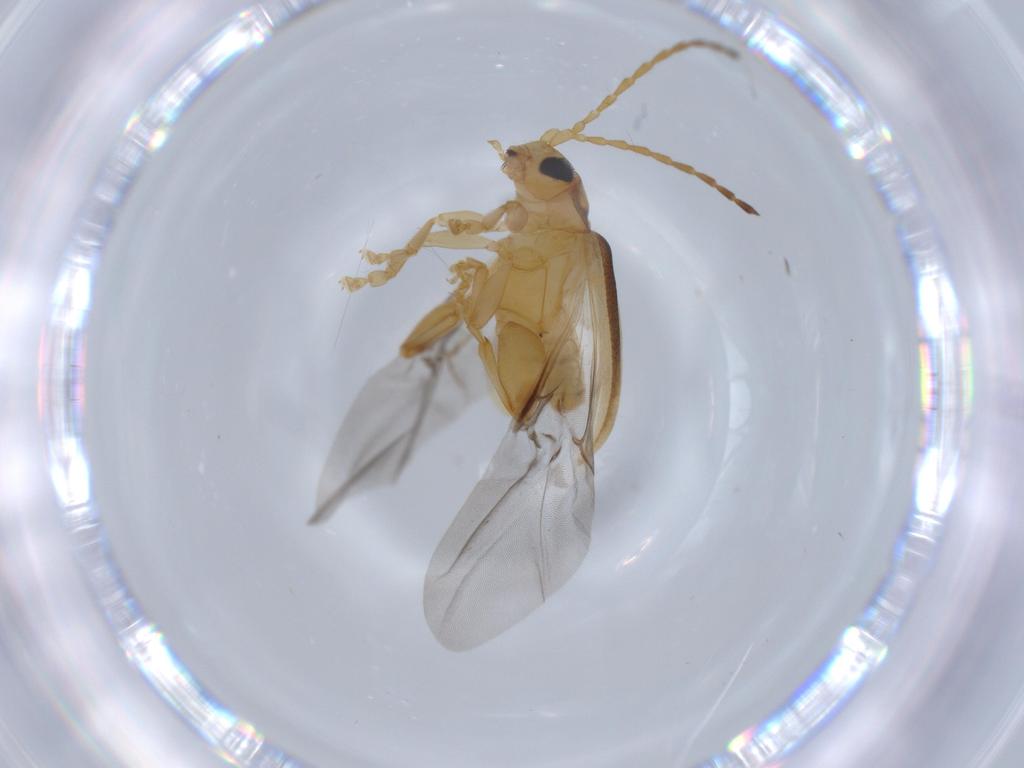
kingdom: Animalia
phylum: Arthropoda
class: Insecta
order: Coleoptera
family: Chrysomelidae
